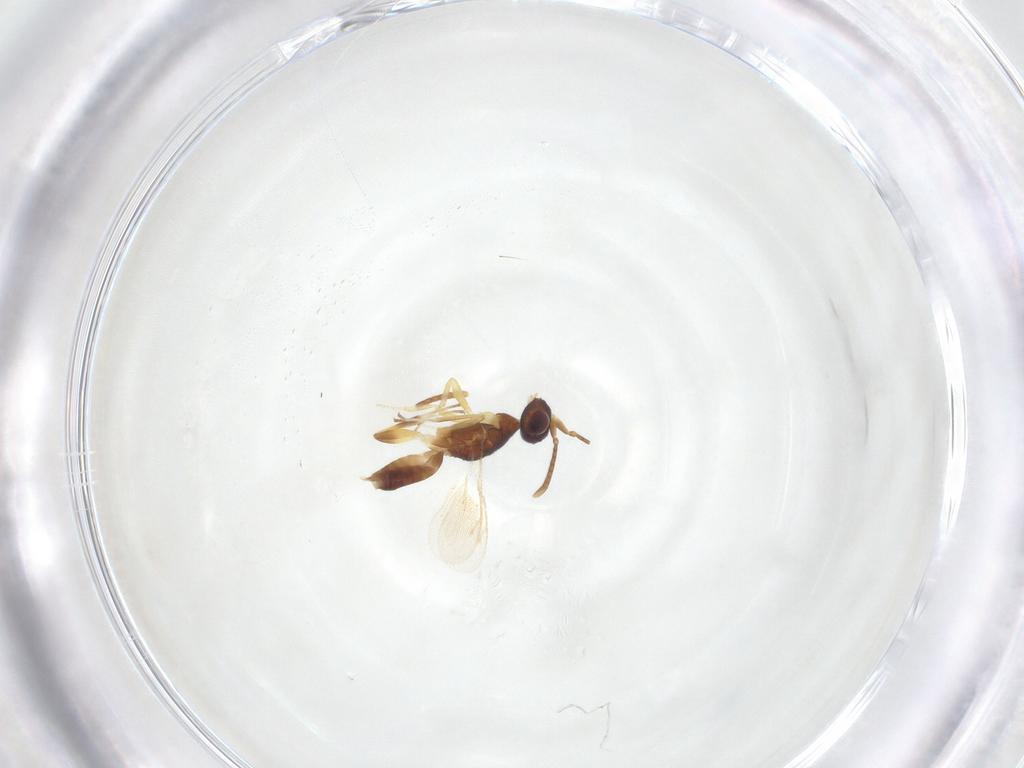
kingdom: Animalia
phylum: Arthropoda
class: Insecta
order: Hymenoptera
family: Eupelmidae
